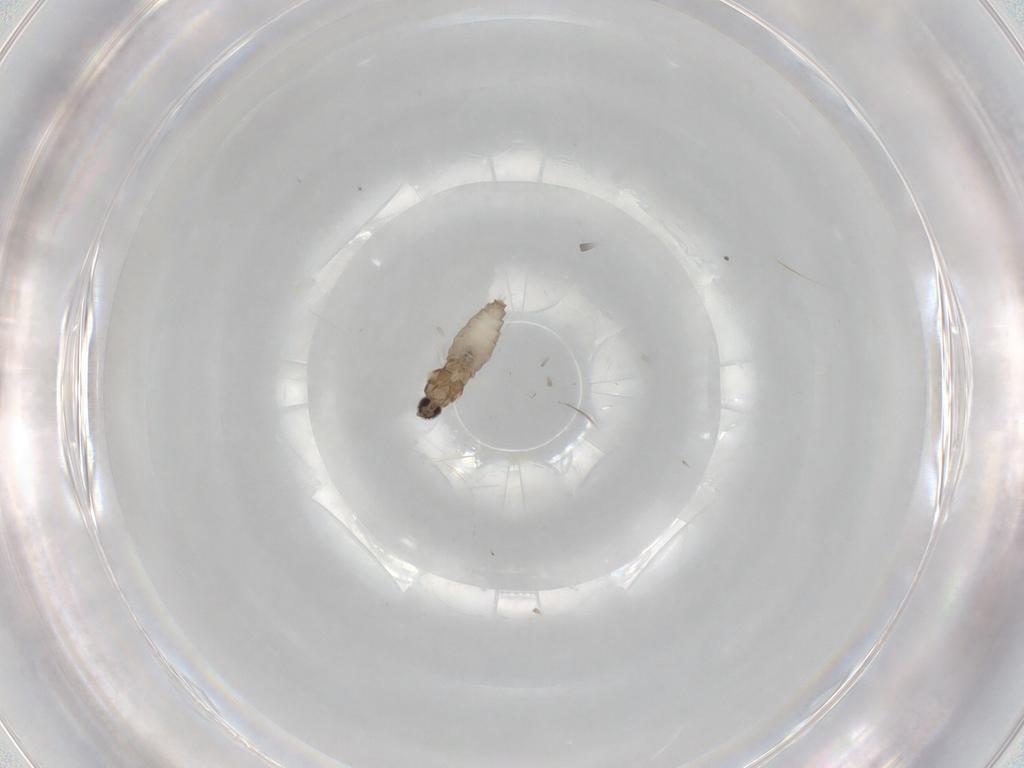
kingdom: Animalia
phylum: Arthropoda
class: Insecta
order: Diptera
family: Cecidomyiidae
